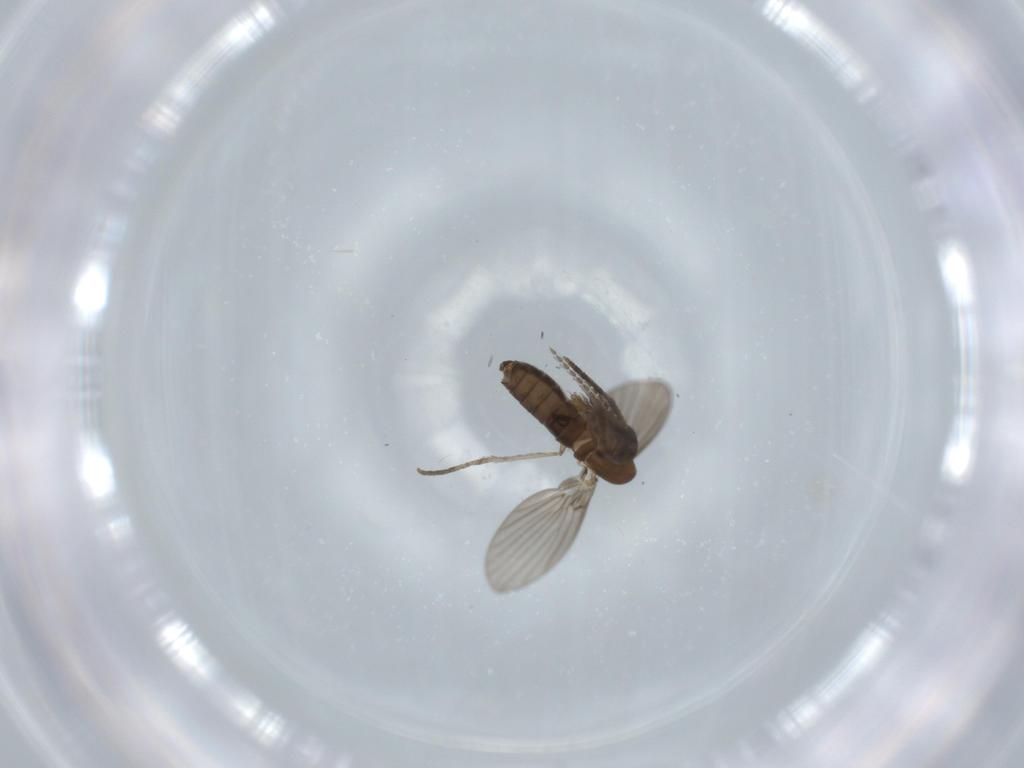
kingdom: Animalia
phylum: Arthropoda
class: Insecta
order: Diptera
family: Psychodidae
